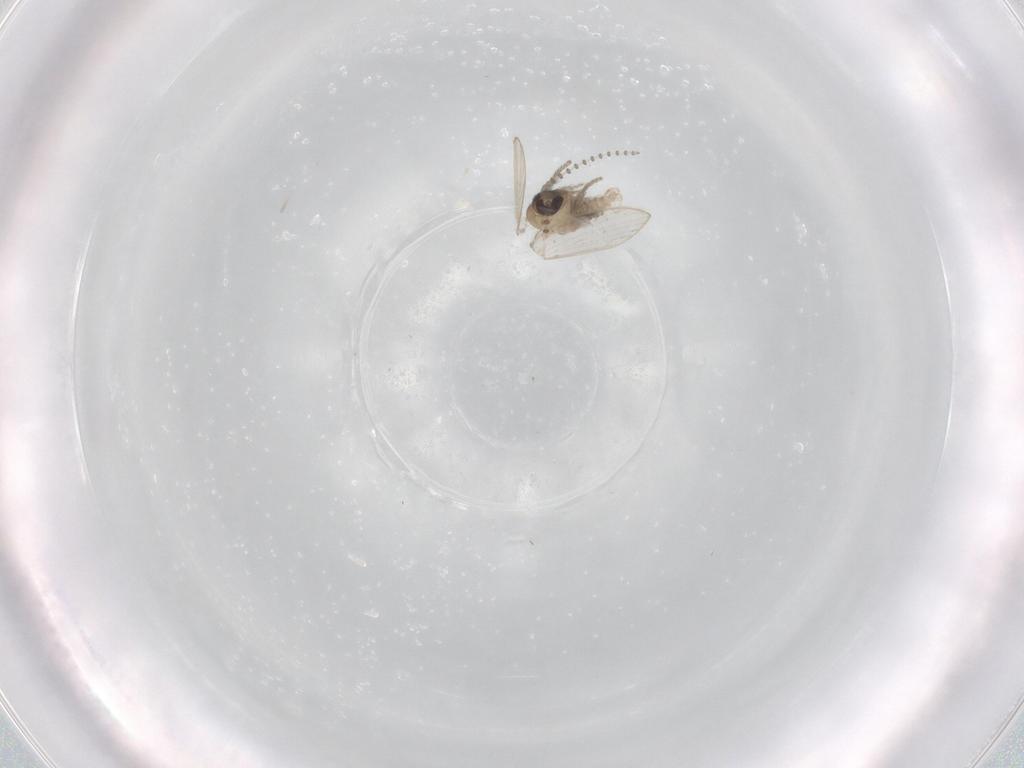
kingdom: Animalia
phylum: Arthropoda
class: Insecta
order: Diptera
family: Psychodidae
